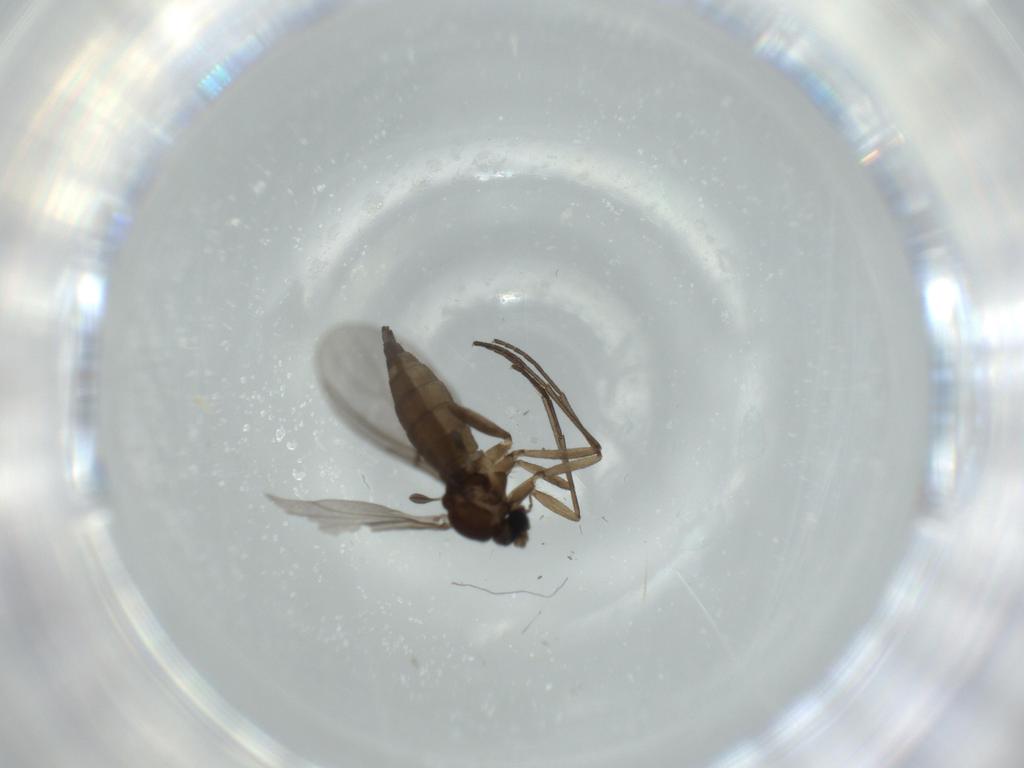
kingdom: Animalia
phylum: Arthropoda
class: Insecta
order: Diptera
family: Sciaridae
